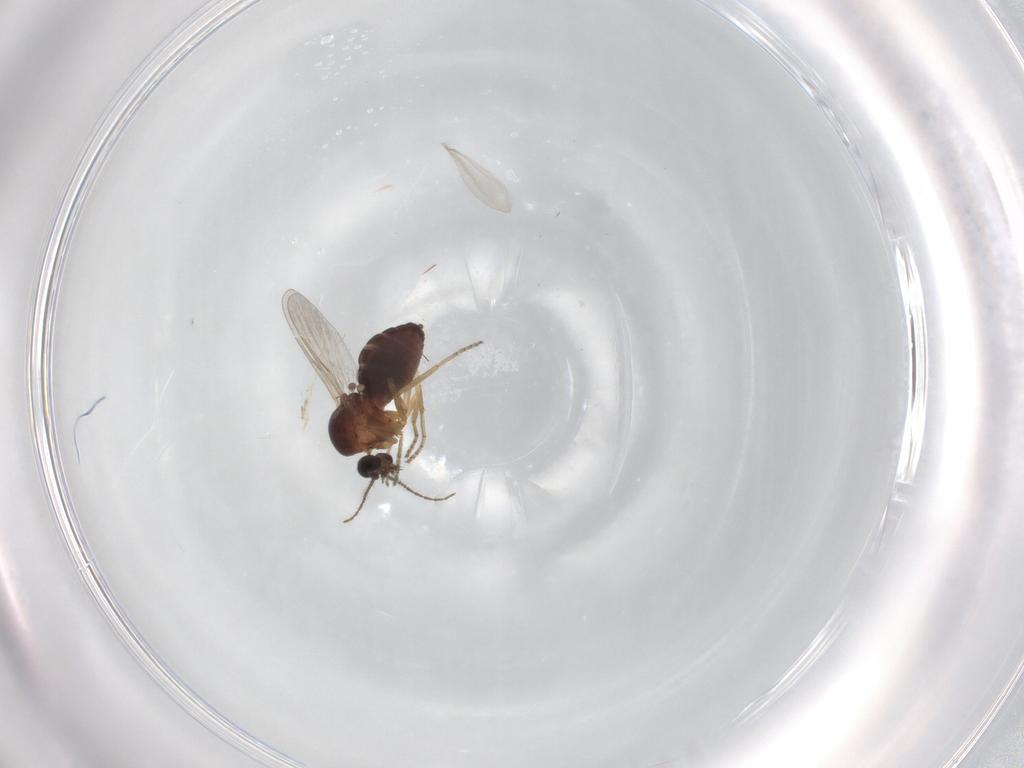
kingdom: Animalia
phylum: Arthropoda
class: Insecta
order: Diptera
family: Ceratopogonidae
